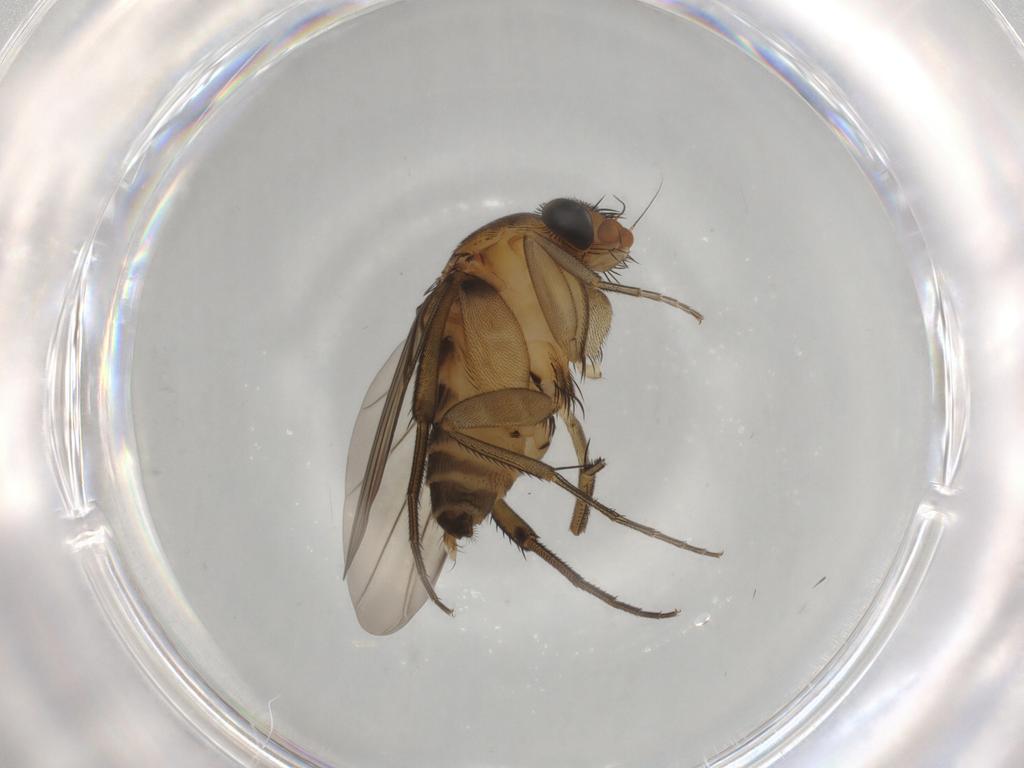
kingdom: Animalia
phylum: Arthropoda
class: Insecta
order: Diptera
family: Phoridae
